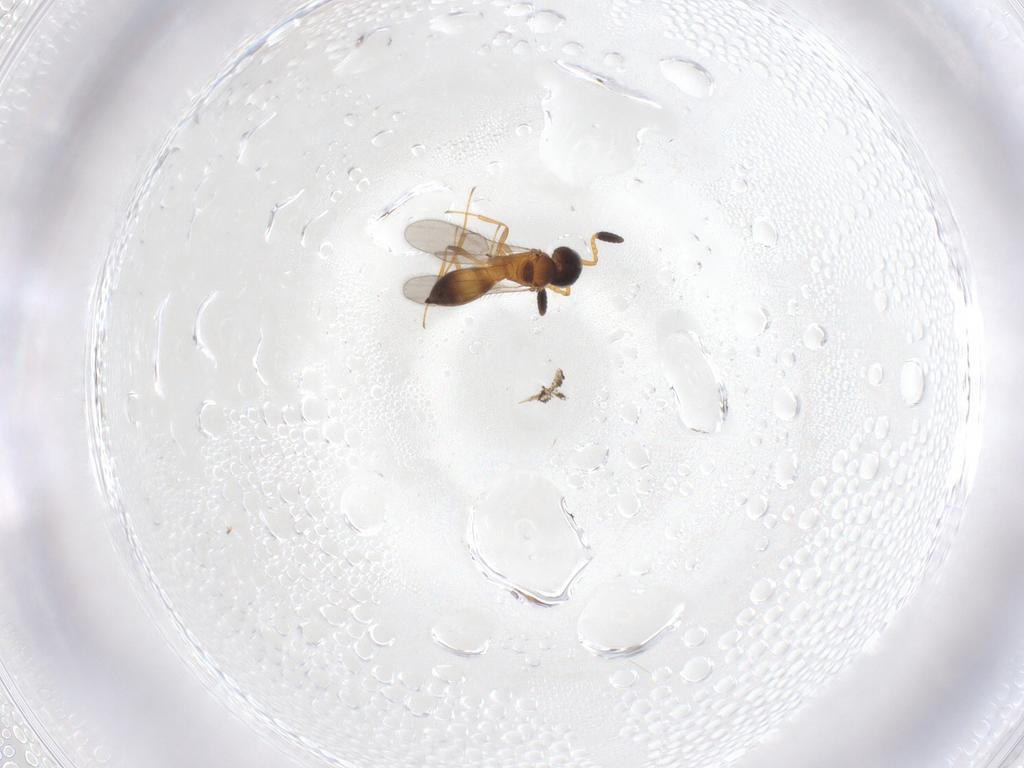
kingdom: Animalia
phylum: Arthropoda
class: Insecta
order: Hymenoptera
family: Scelionidae
